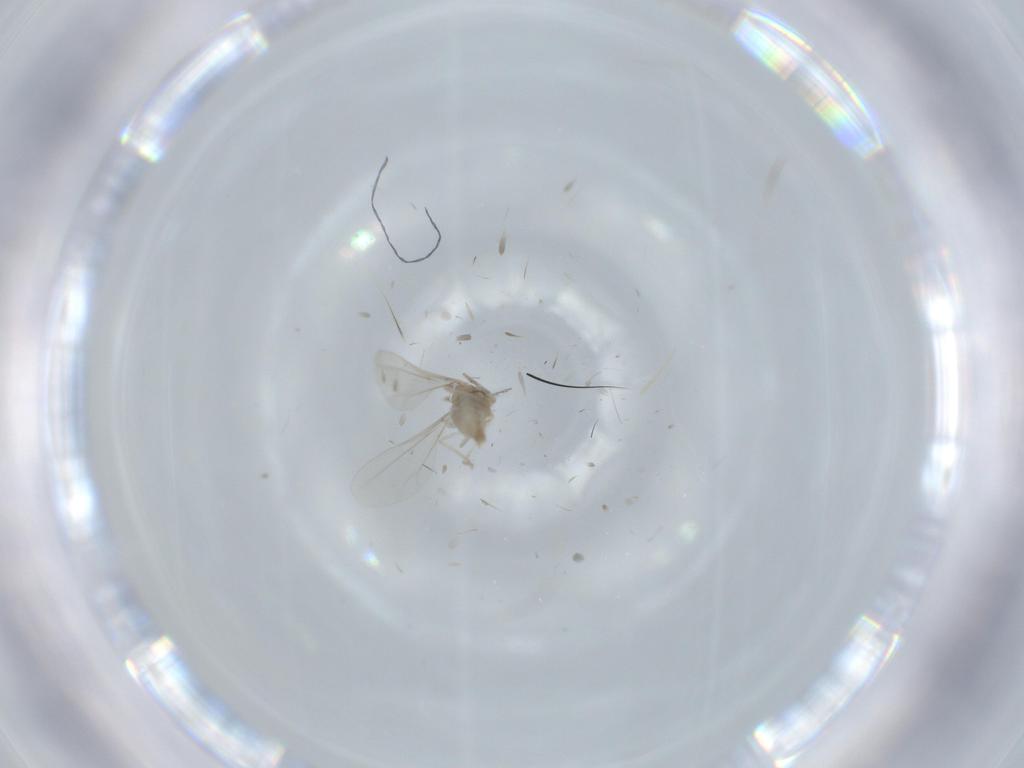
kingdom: Animalia
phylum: Arthropoda
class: Insecta
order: Diptera
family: Cecidomyiidae
